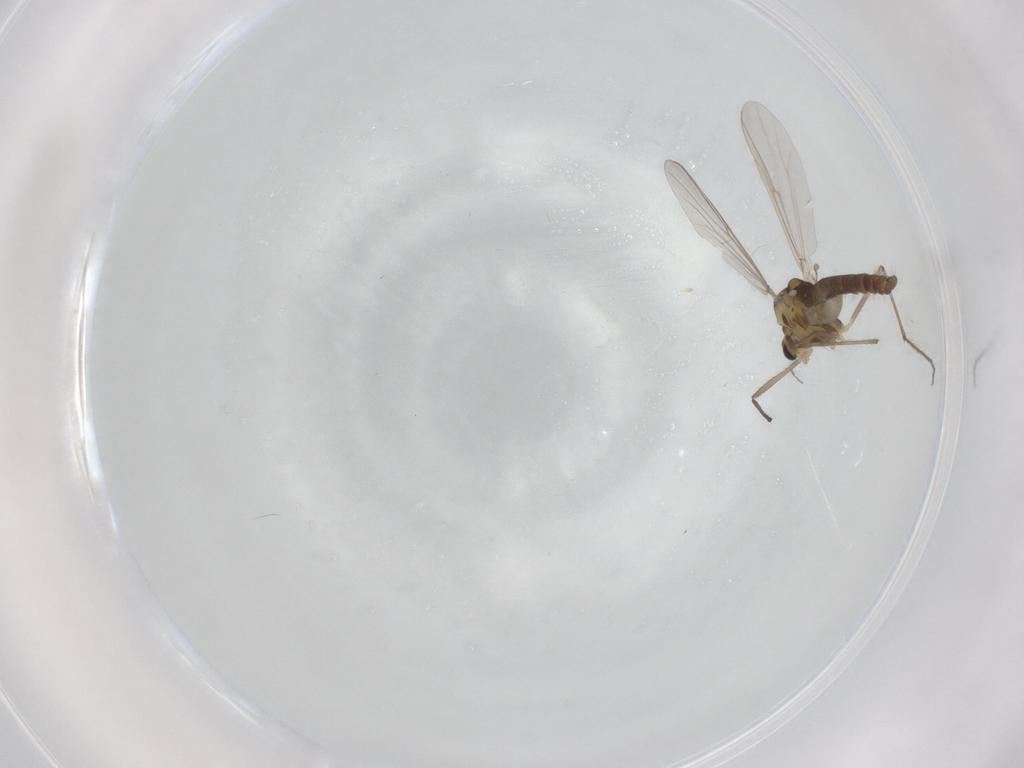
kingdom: Animalia
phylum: Arthropoda
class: Insecta
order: Diptera
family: Chironomidae
